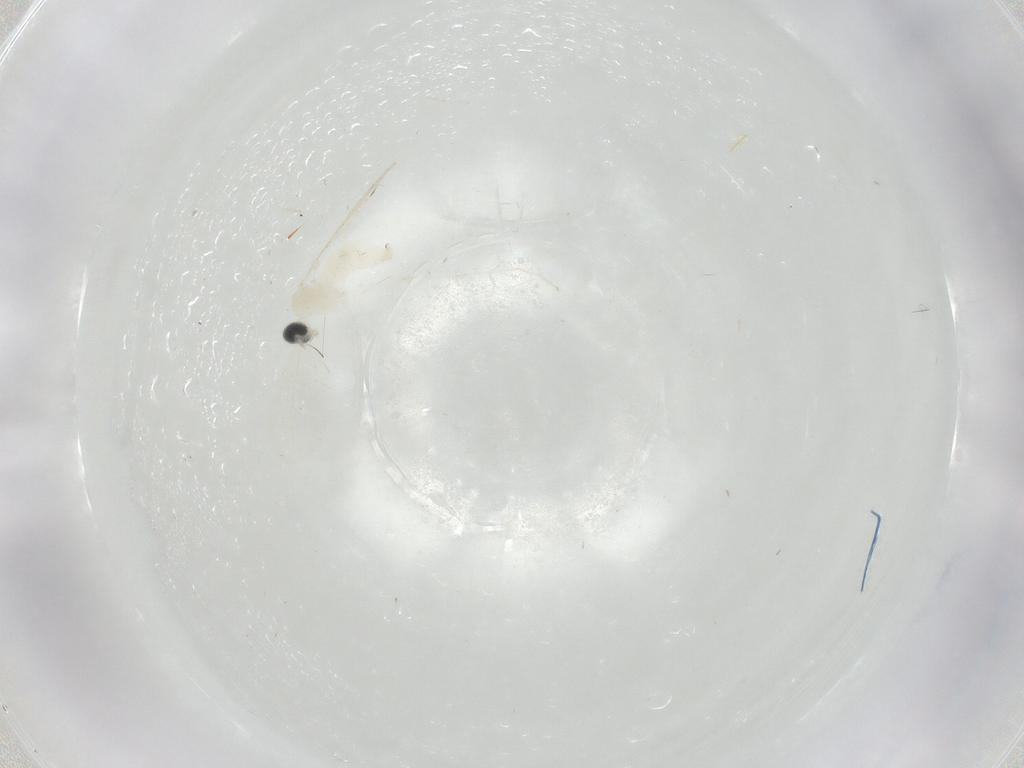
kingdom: Animalia
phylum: Arthropoda
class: Insecta
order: Diptera
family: Cecidomyiidae
